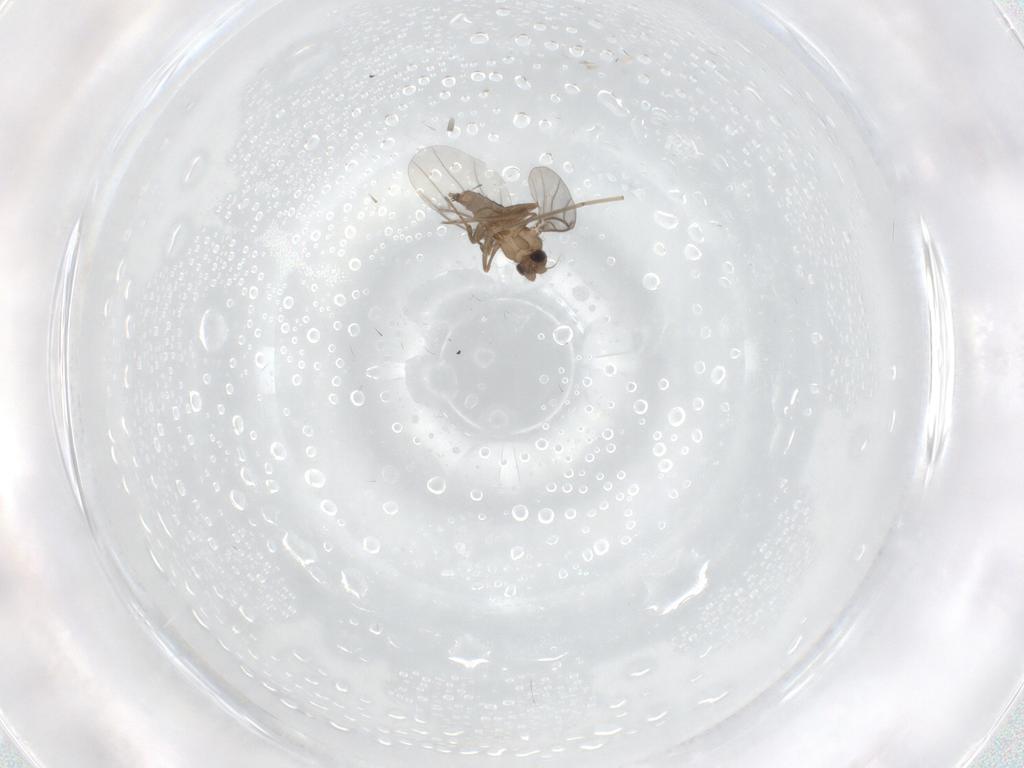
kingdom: Animalia
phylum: Arthropoda
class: Insecta
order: Diptera
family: Cecidomyiidae
